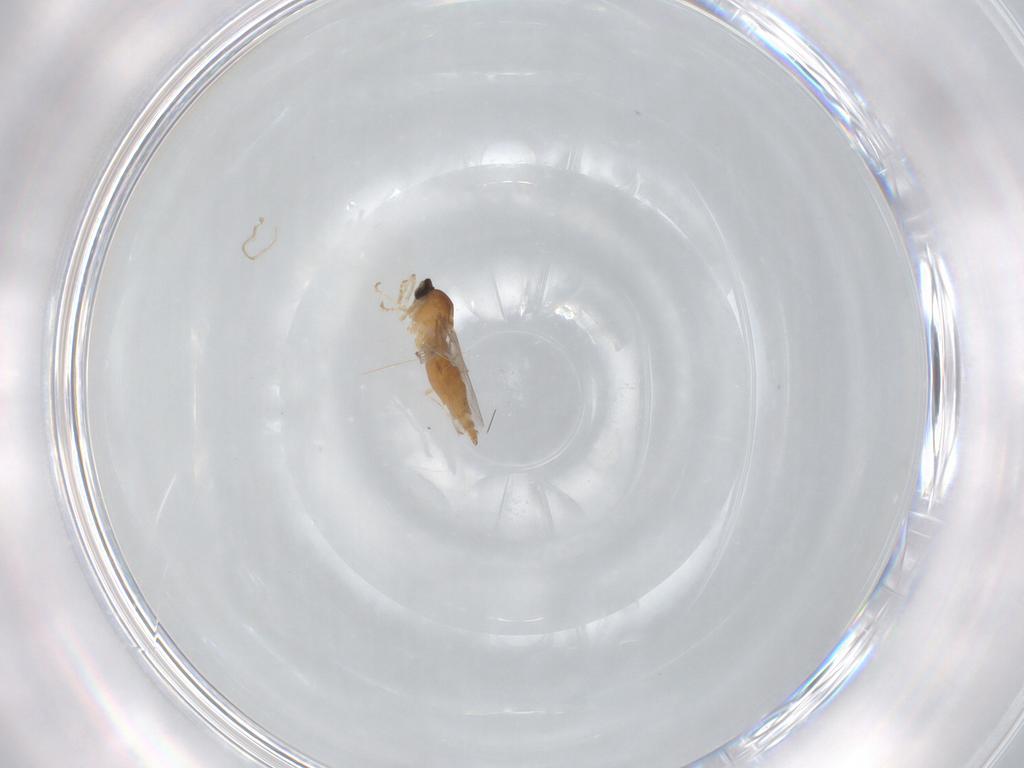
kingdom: Animalia
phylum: Arthropoda
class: Insecta
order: Diptera
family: Cecidomyiidae
